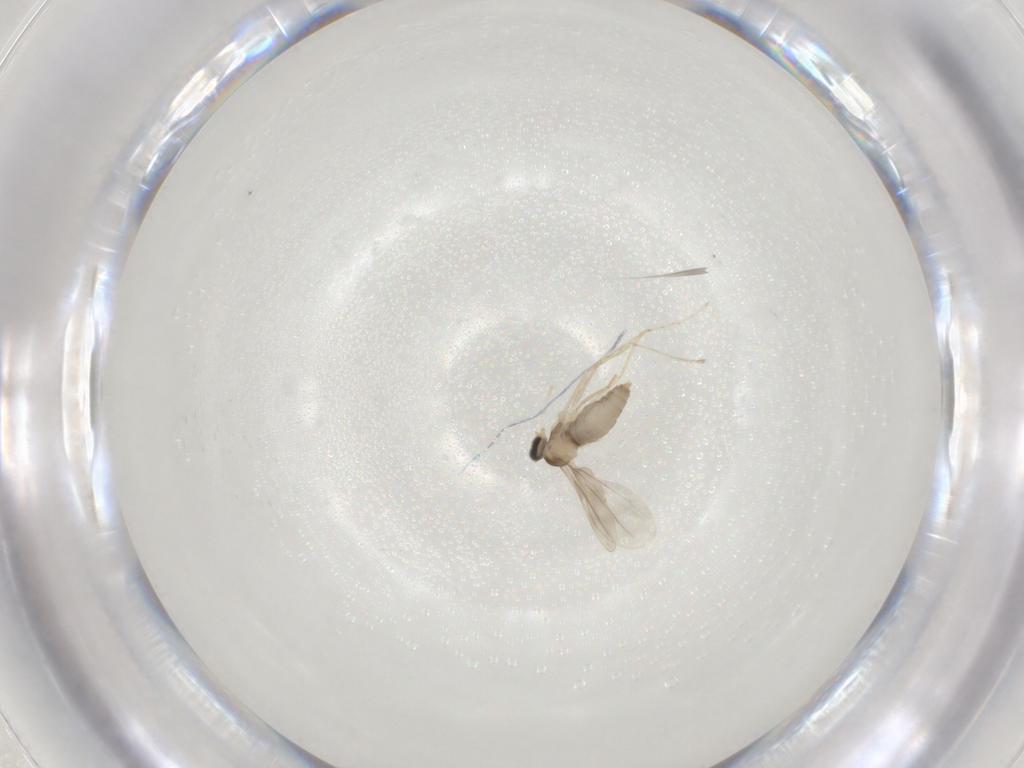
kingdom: Animalia
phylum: Arthropoda
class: Insecta
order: Diptera
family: Cecidomyiidae
